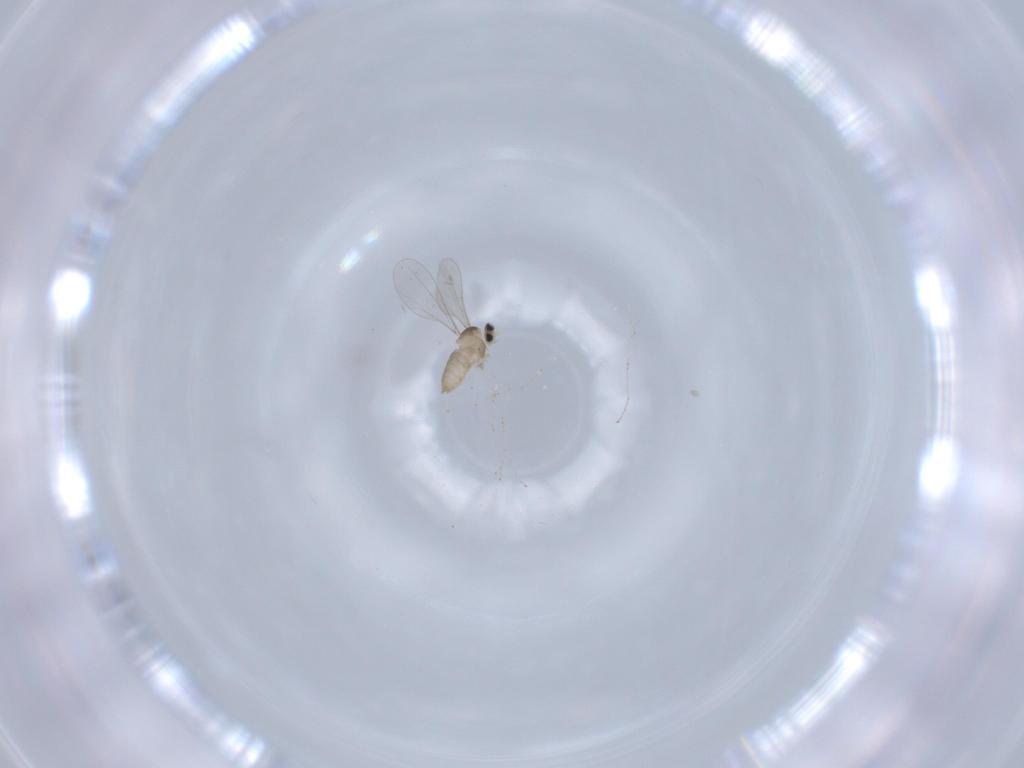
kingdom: Animalia
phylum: Arthropoda
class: Insecta
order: Diptera
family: Cecidomyiidae
